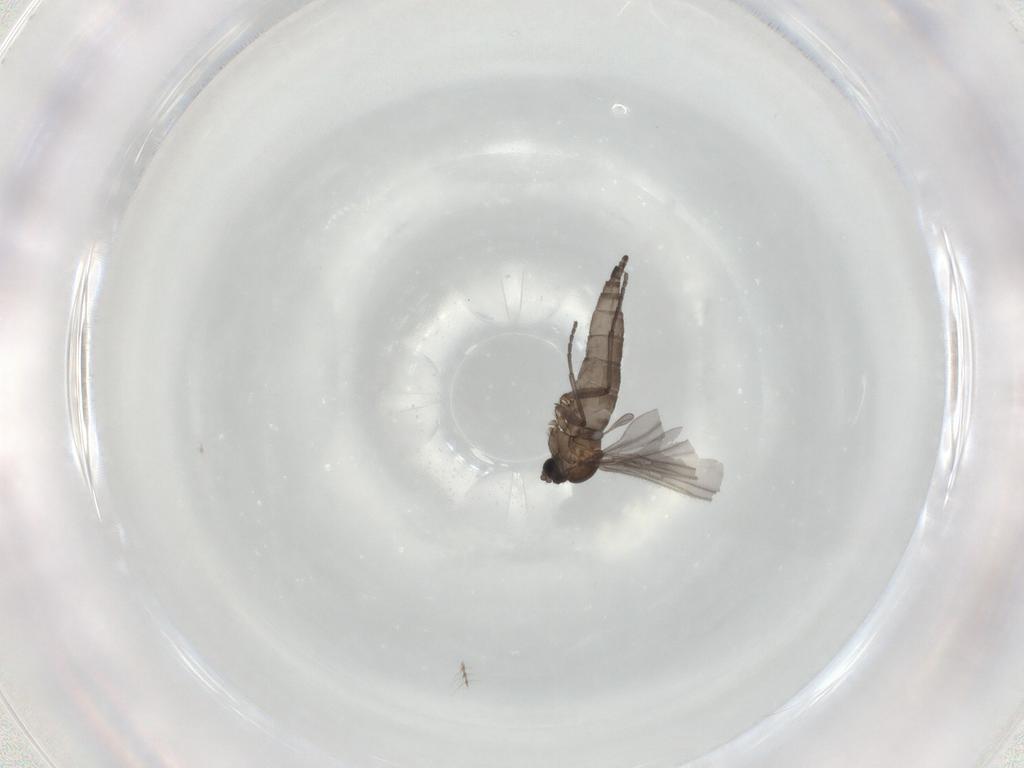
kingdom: Animalia
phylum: Arthropoda
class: Insecta
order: Diptera
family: Sciaridae
